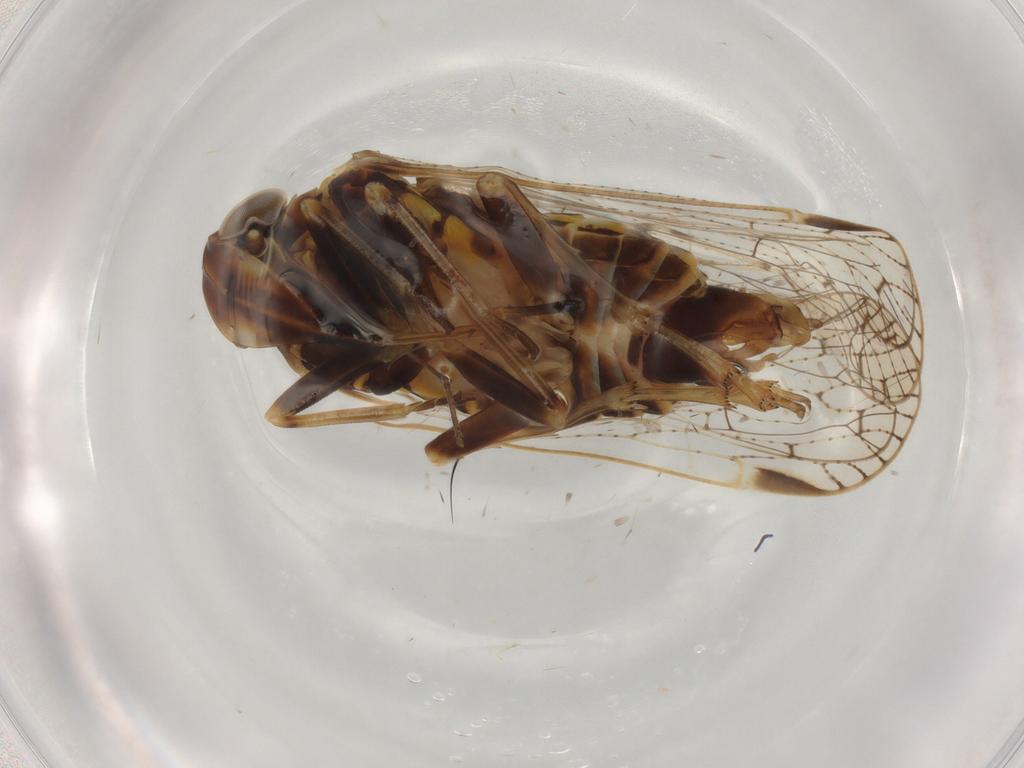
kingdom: Animalia
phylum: Arthropoda
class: Insecta
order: Hemiptera
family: Cixiidae
